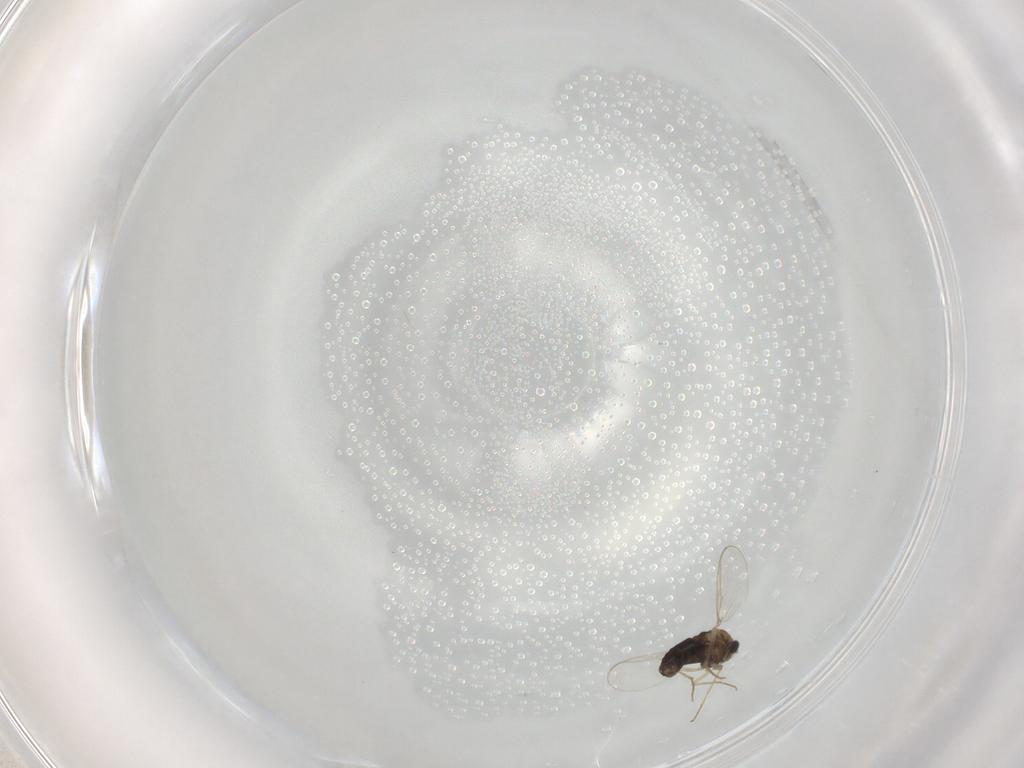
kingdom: Animalia
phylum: Arthropoda
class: Insecta
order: Diptera
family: Chironomidae
